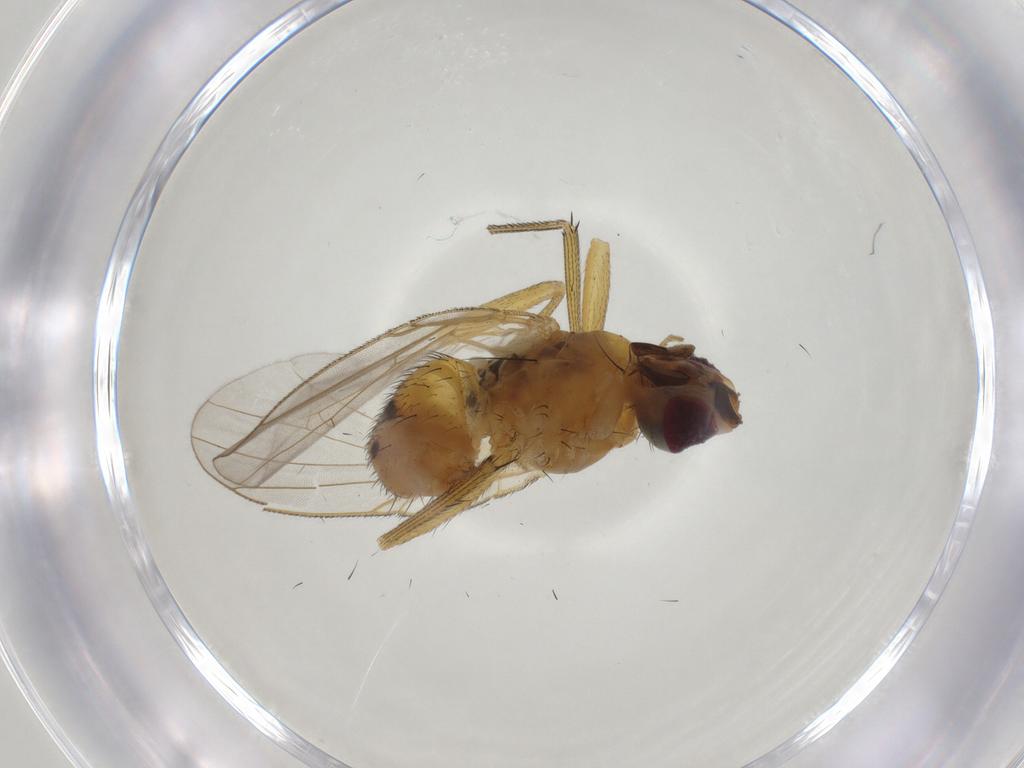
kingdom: Animalia
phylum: Arthropoda
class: Insecta
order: Diptera
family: Muscidae
